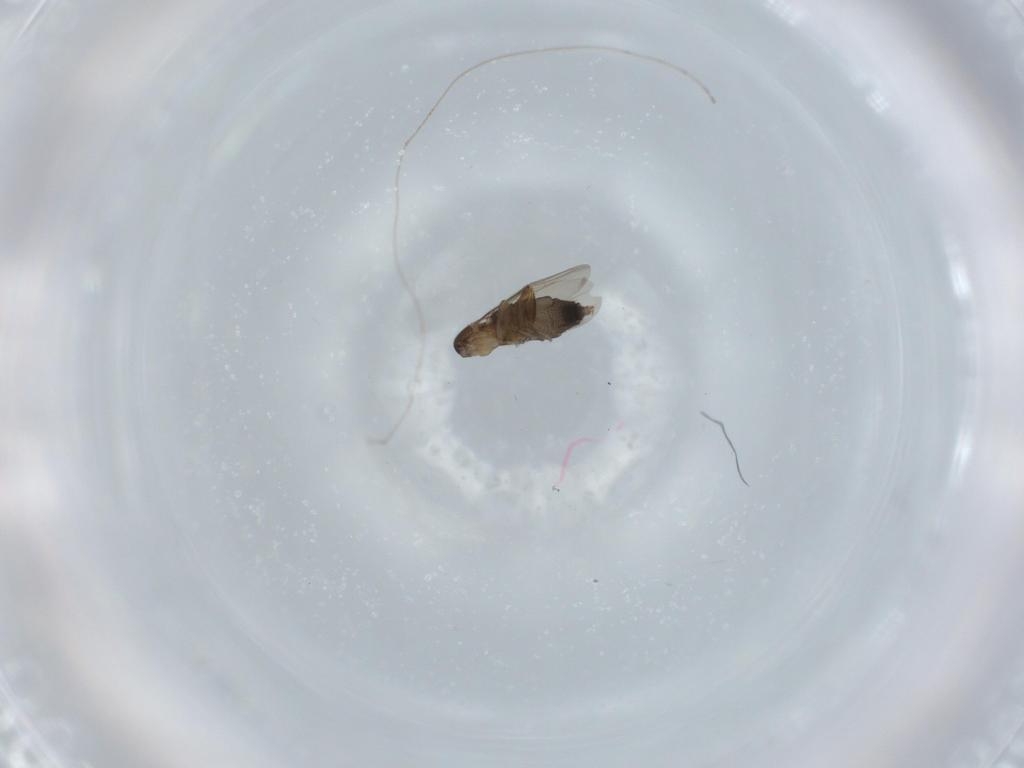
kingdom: Animalia
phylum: Arthropoda
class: Insecta
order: Diptera
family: Phoridae
